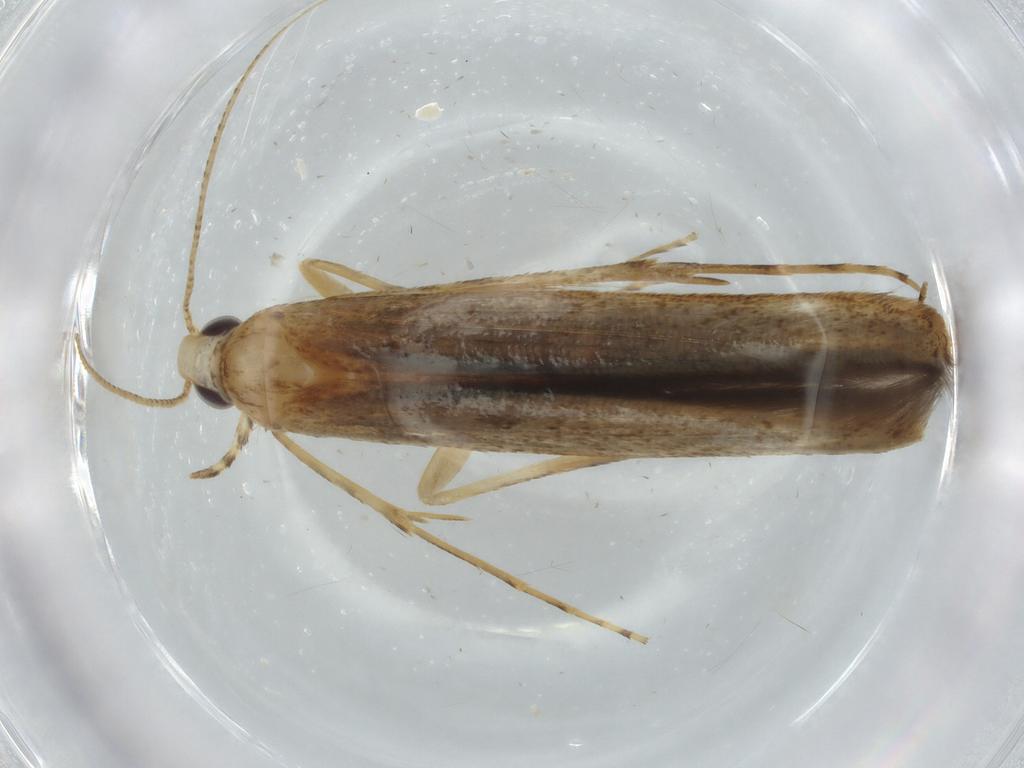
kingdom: Animalia
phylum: Arthropoda
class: Insecta
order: Lepidoptera
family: Batrachedridae
